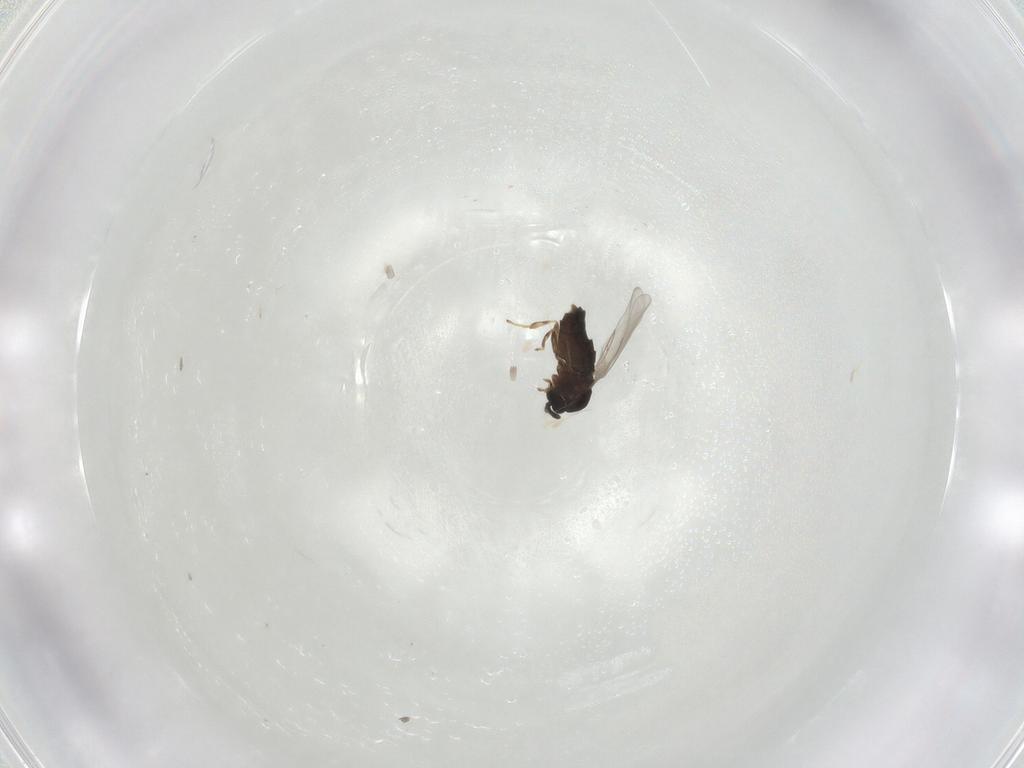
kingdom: Animalia
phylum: Arthropoda
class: Insecta
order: Diptera
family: Scatopsidae
